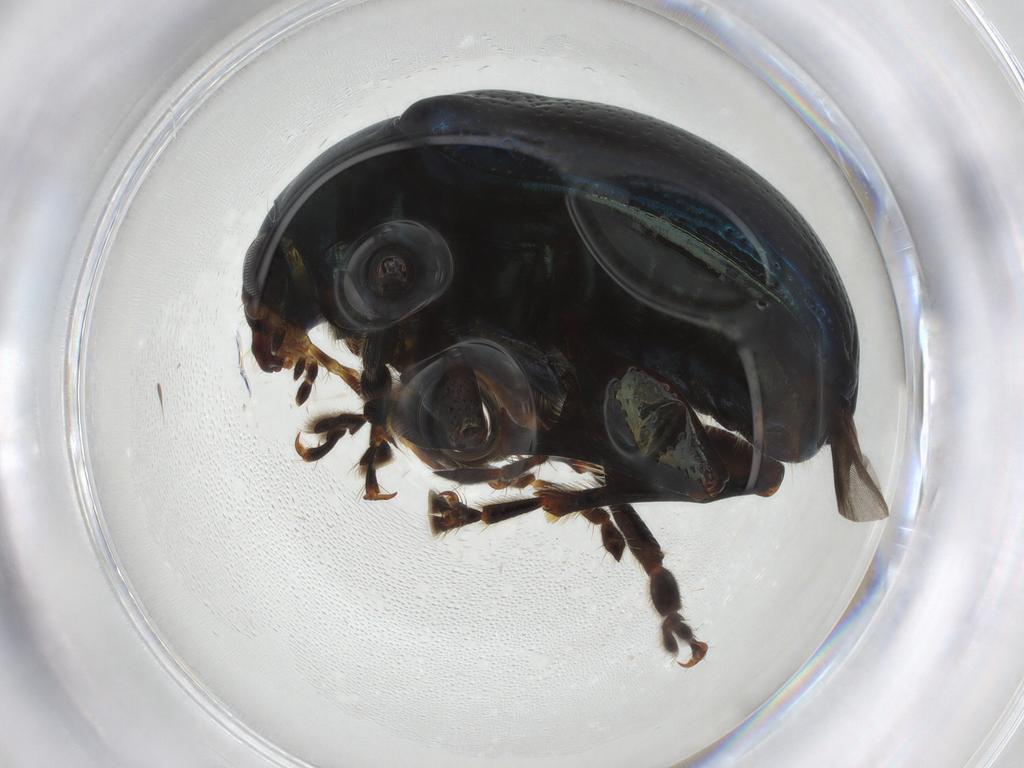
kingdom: Animalia
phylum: Arthropoda
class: Insecta
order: Coleoptera
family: Chrysomelidae
